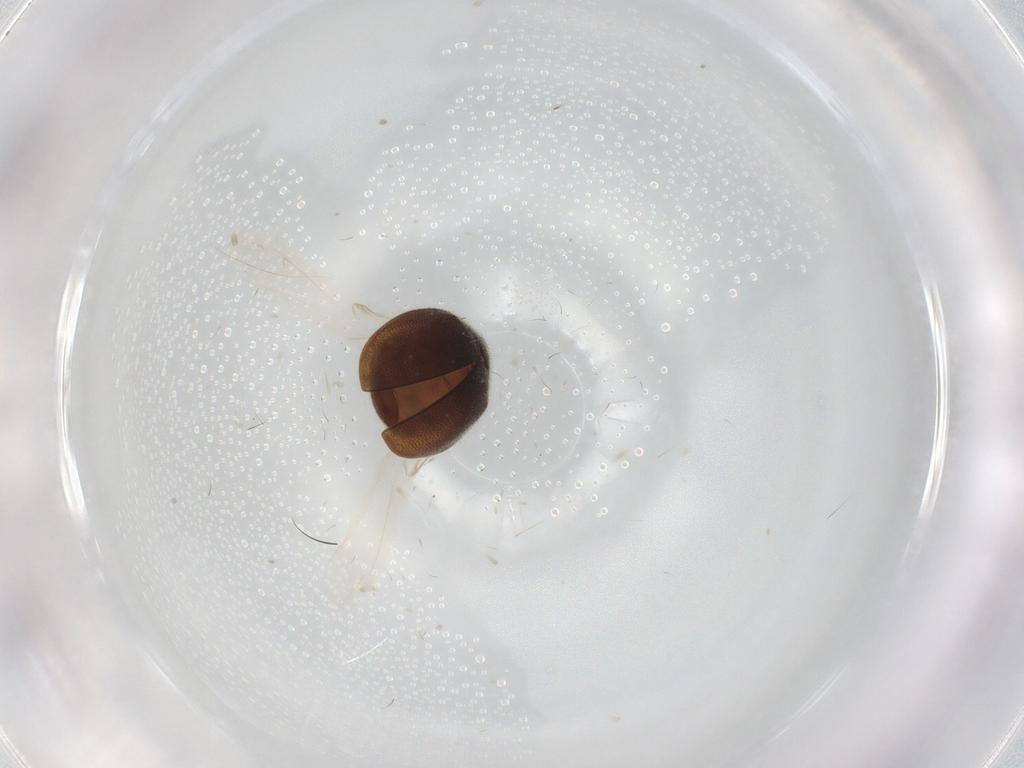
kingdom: Animalia
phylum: Arthropoda
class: Insecta
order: Coleoptera
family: Coccinellidae
